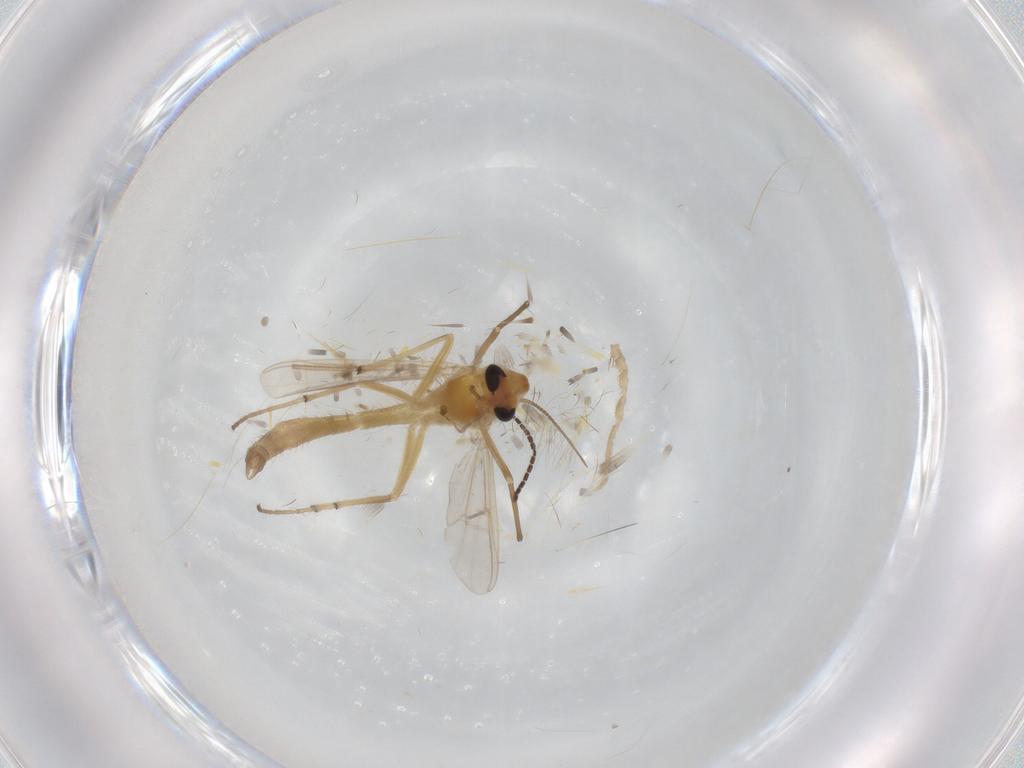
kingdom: Animalia
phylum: Arthropoda
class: Insecta
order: Diptera
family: Chironomidae
